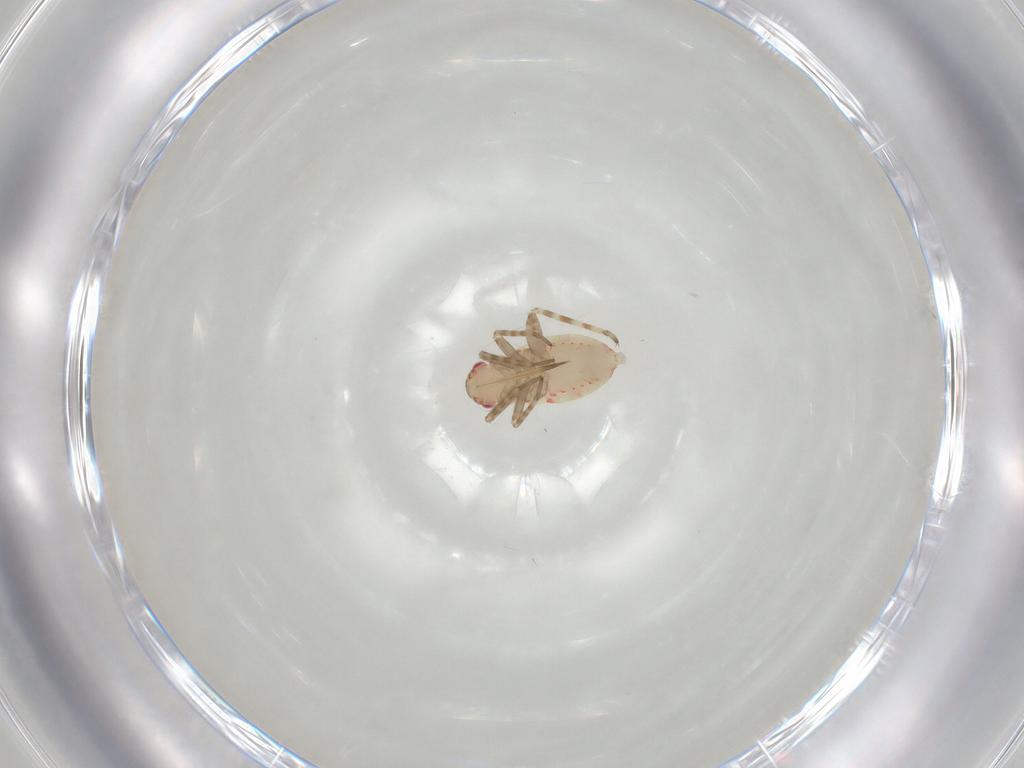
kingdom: Animalia
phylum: Arthropoda
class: Insecta
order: Hemiptera
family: Miridae
